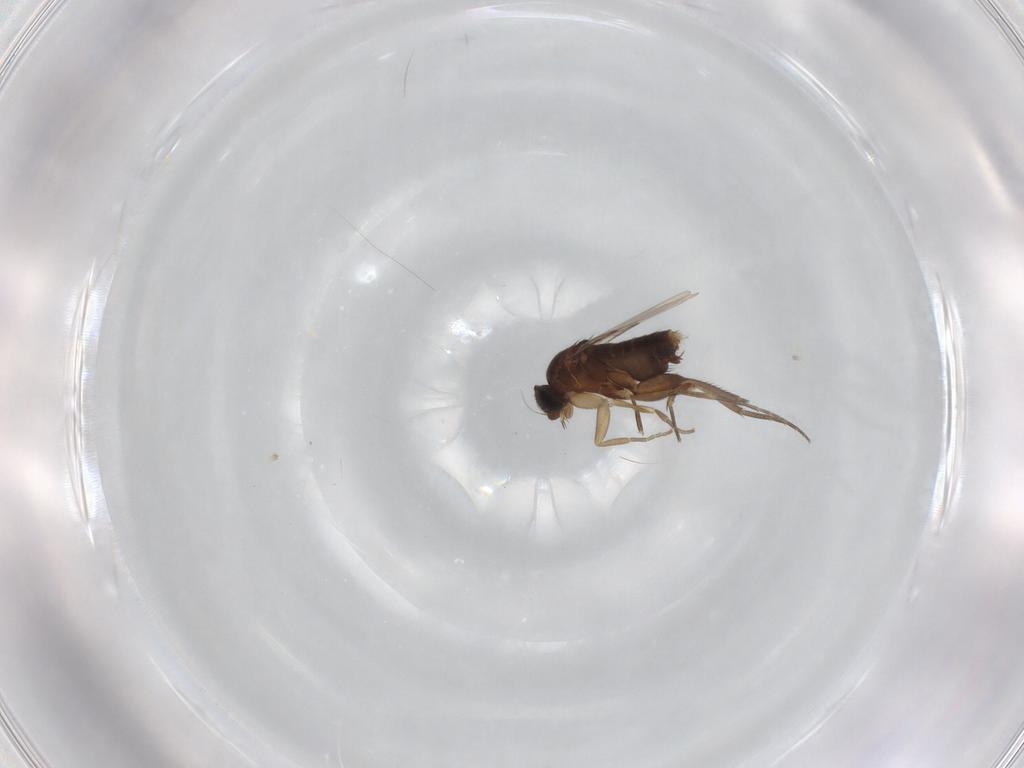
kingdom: Animalia
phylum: Arthropoda
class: Insecta
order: Diptera
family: Phoridae
